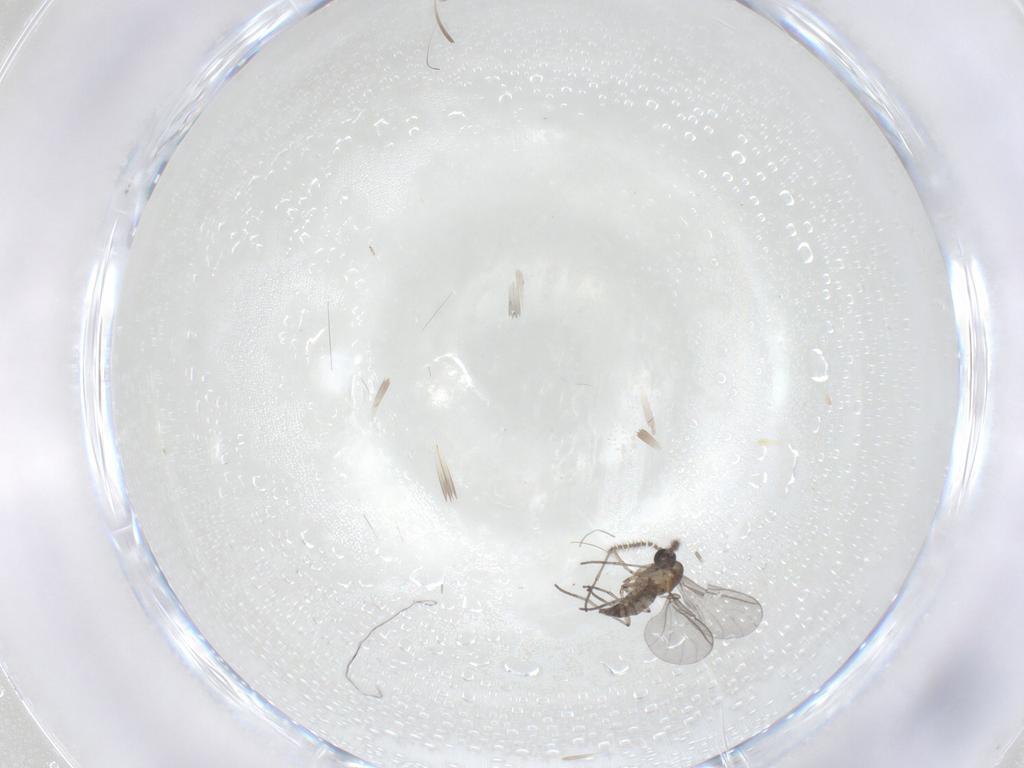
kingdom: Animalia
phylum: Arthropoda
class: Insecta
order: Diptera
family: Sciaridae
